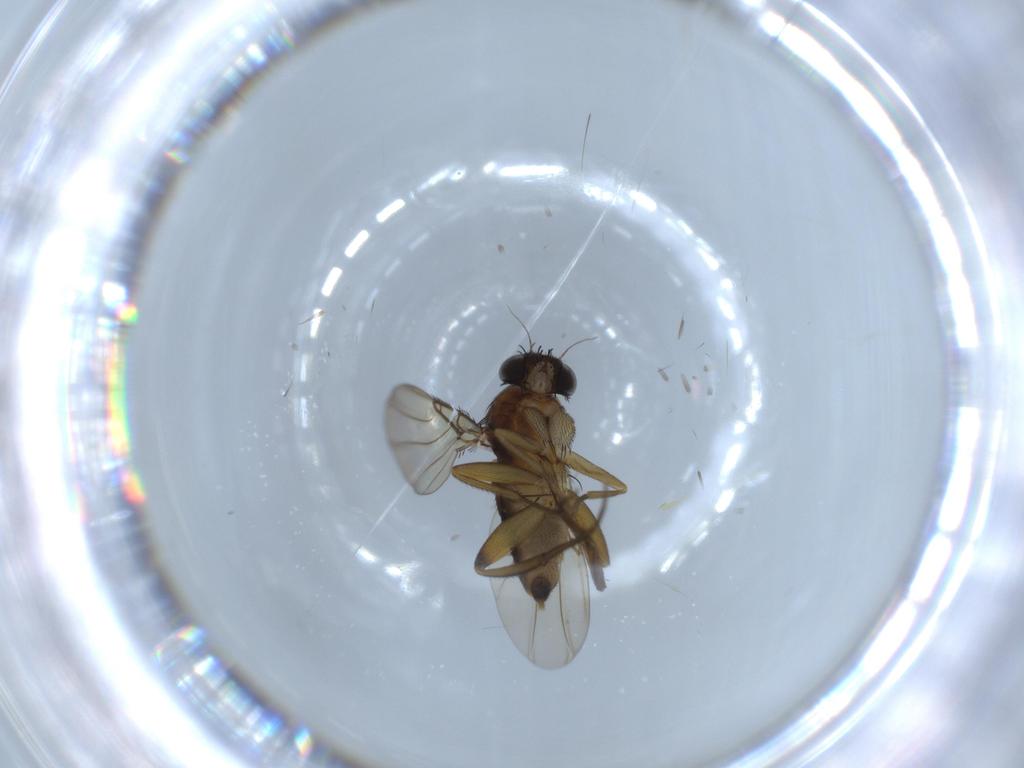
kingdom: Animalia
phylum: Arthropoda
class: Insecta
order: Diptera
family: Phoridae
